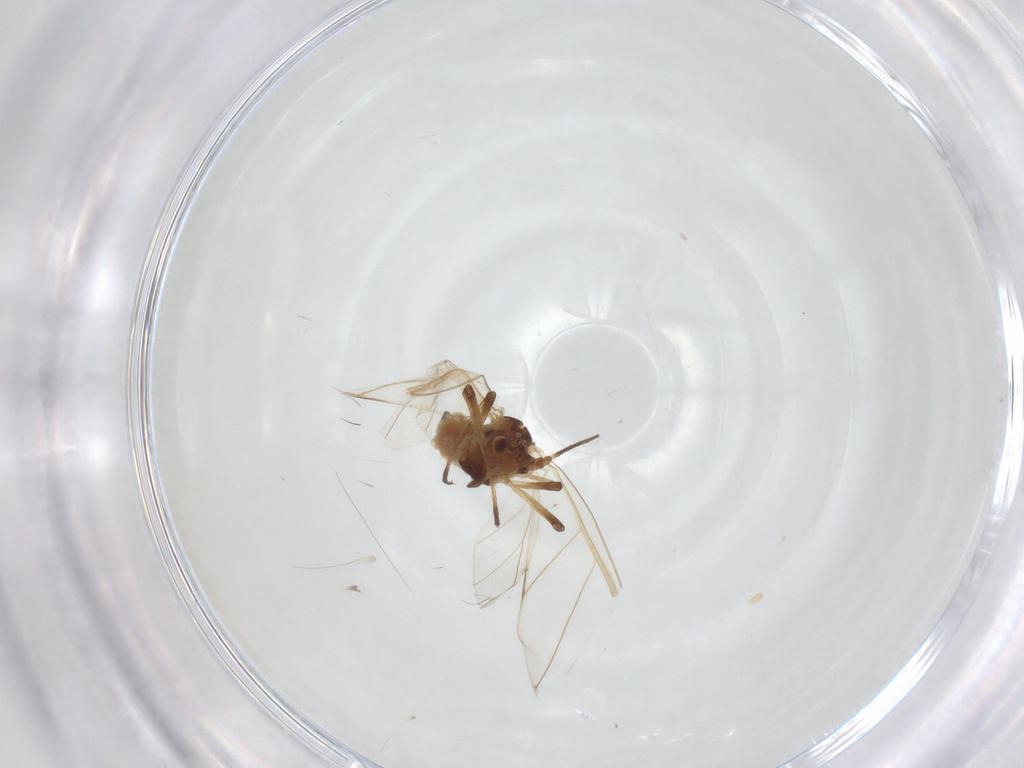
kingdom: Animalia
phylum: Arthropoda
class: Insecta
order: Hemiptera
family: Aphididae
